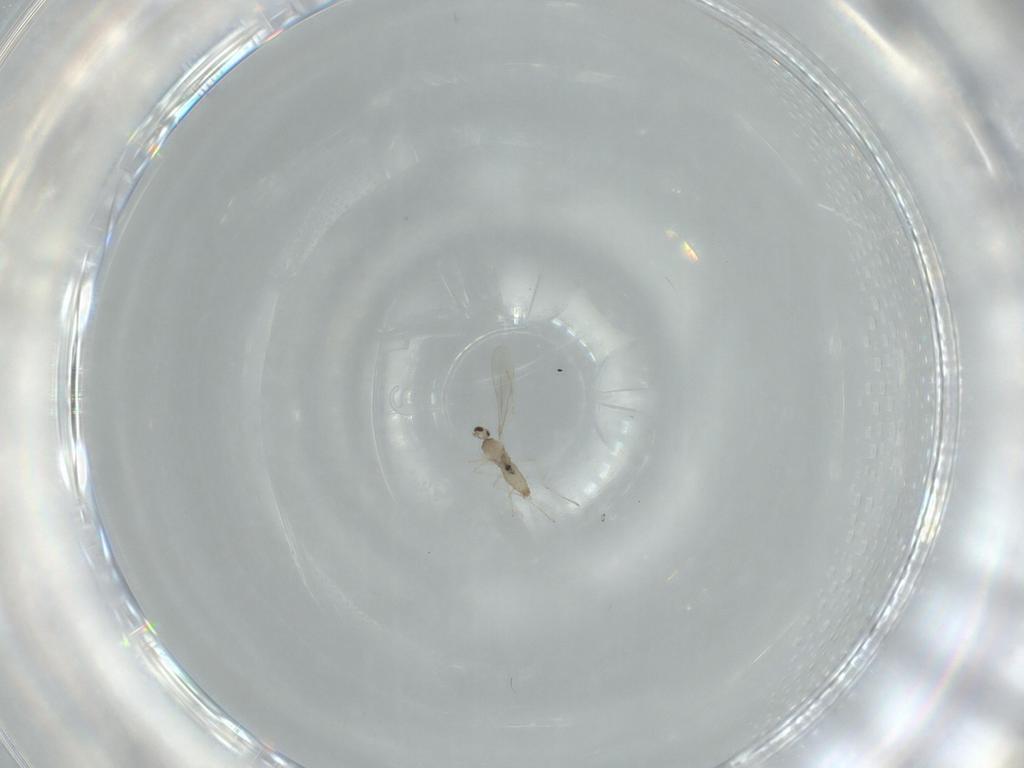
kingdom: Animalia
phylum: Arthropoda
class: Insecta
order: Diptera
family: Sphaeroceridae
